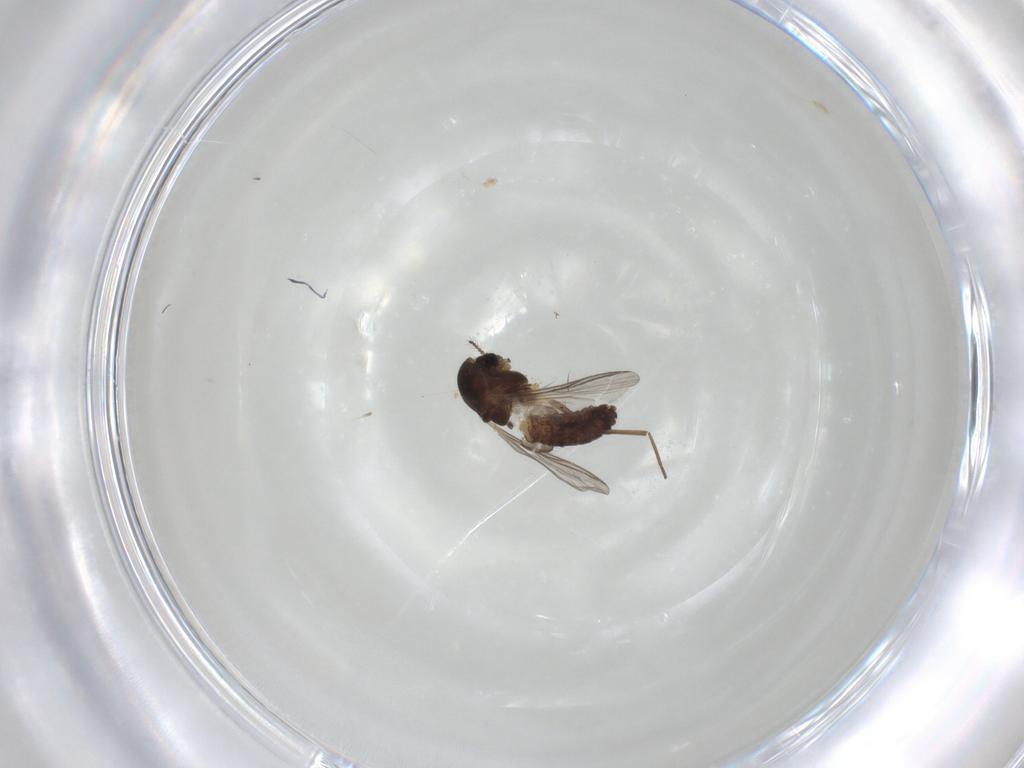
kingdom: Animalia
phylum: Arthropoda
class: Insecta
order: Diptera
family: Chironomidae
